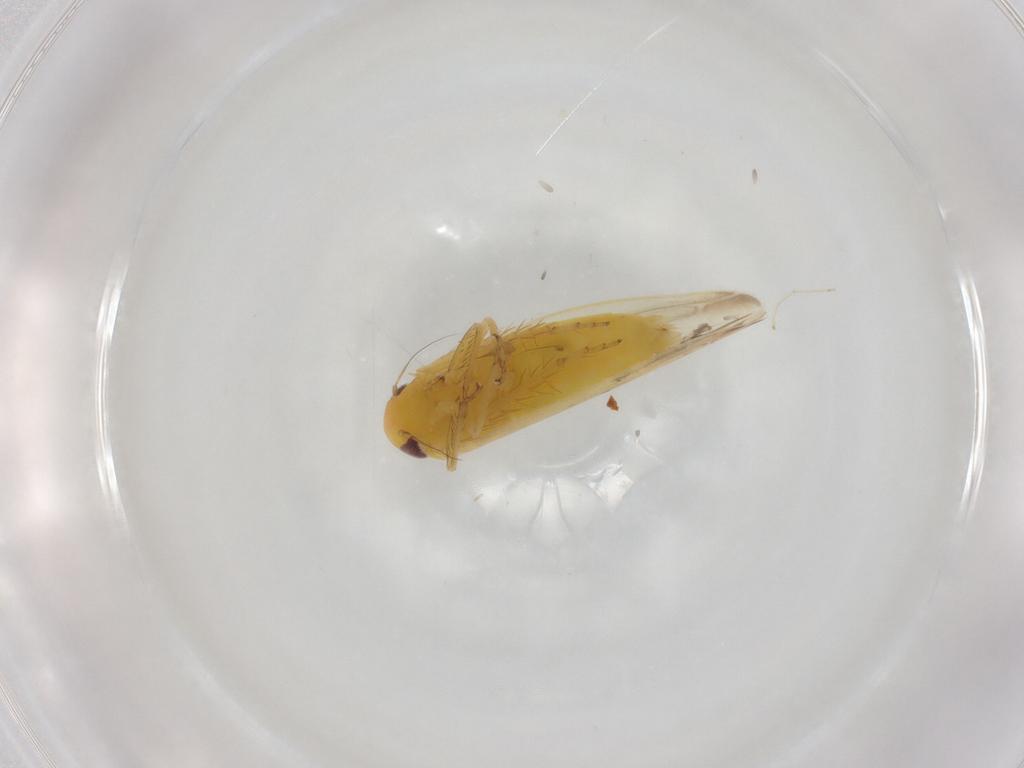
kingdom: Animalia
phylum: Arthropoda
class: Insecta
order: Hemiptera
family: Cicadellidae
